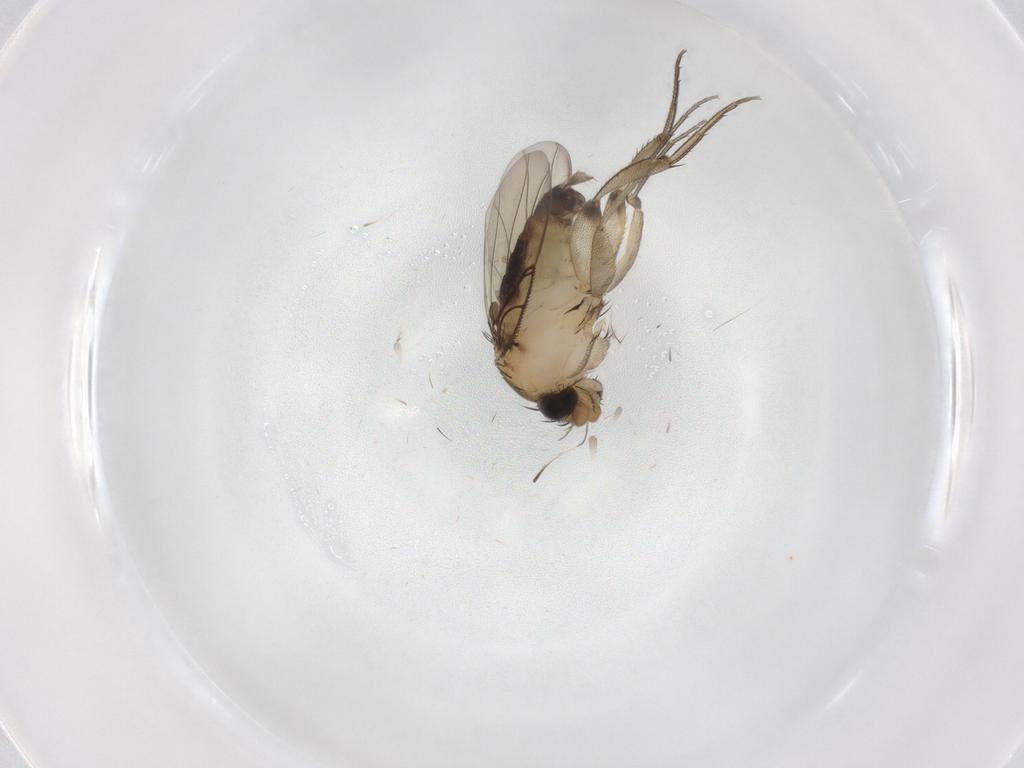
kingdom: Animalia
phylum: Arthropoda
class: Insecta
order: Diptera
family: Phoridae
